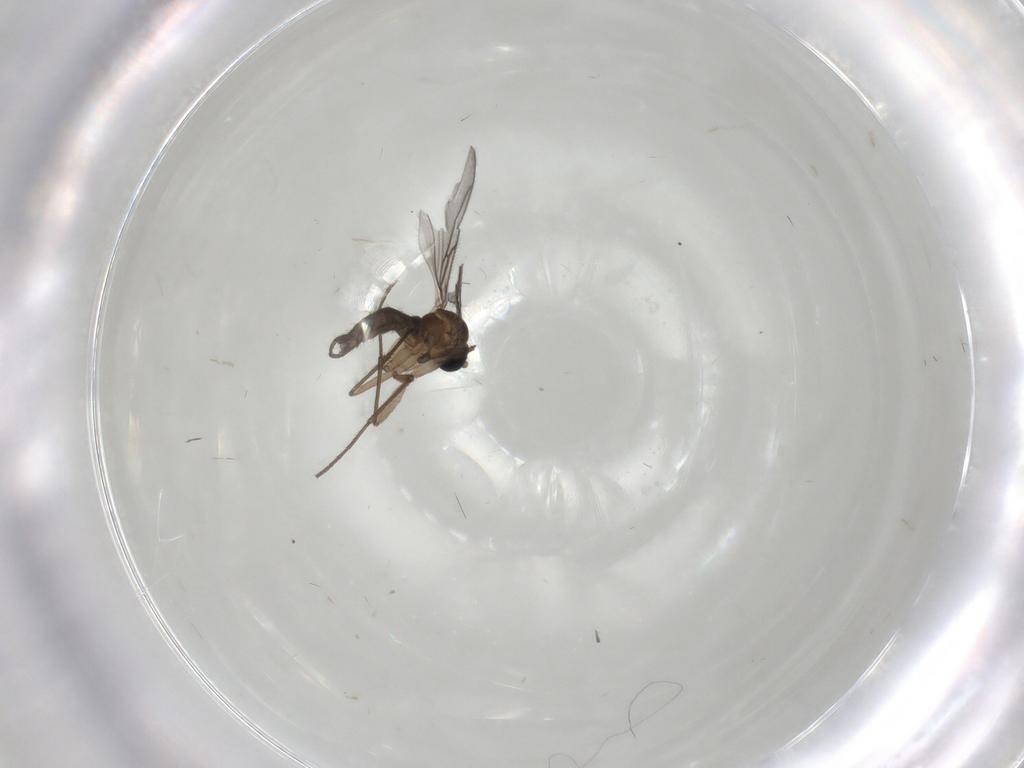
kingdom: Animalia
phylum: Arthropoda
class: Insecta
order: Diptera
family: Sciaridae
